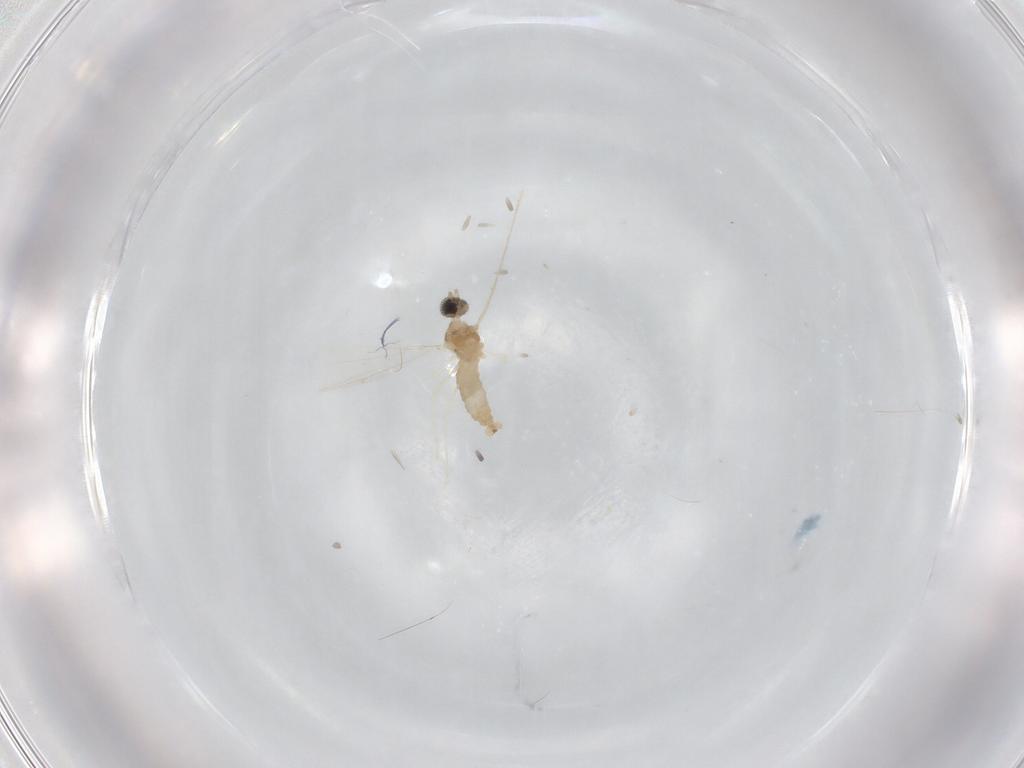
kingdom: Animalia
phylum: Arthropoda
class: Insecta
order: Diptera
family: Cecidomyiidae
